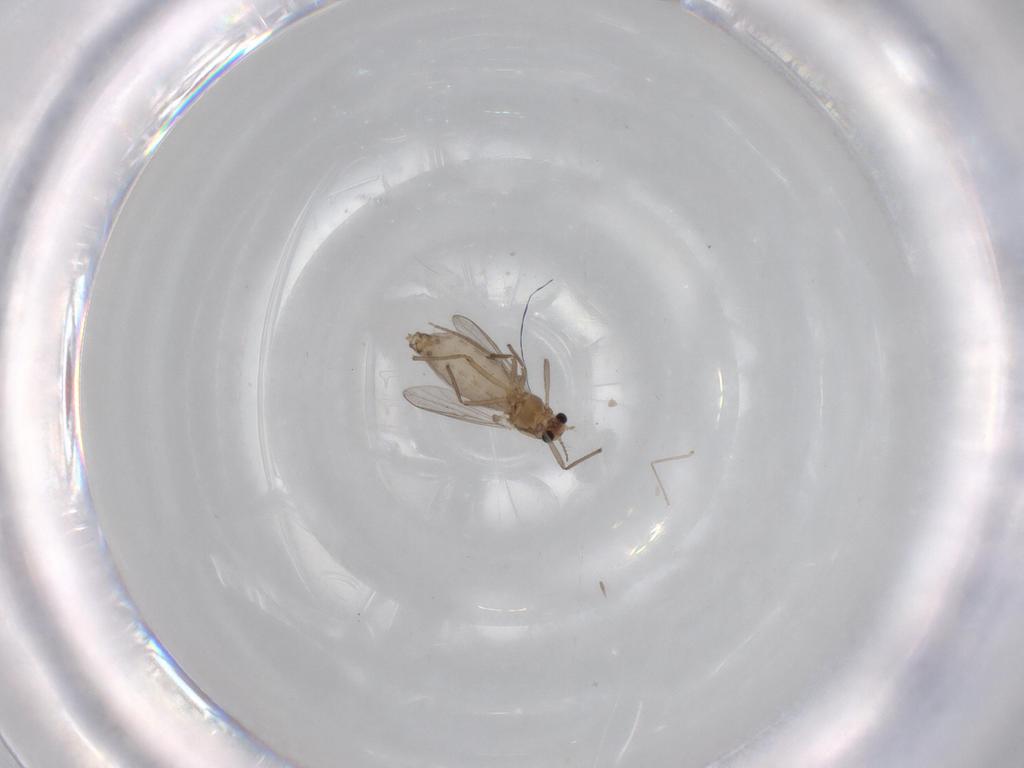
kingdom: Animalia
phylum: Arthropoda
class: Insecta
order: Diptera
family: Chironomidae
